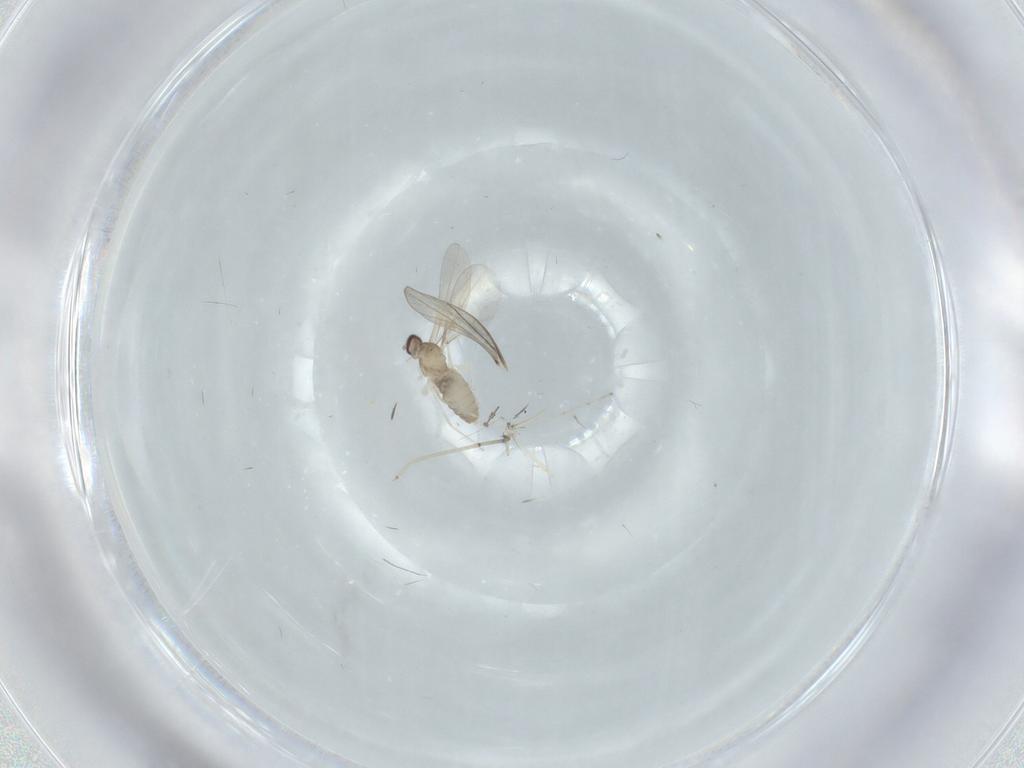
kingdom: Animalia
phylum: Arthropoda
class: Insecta
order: Diptera
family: Cecidomyiidae
